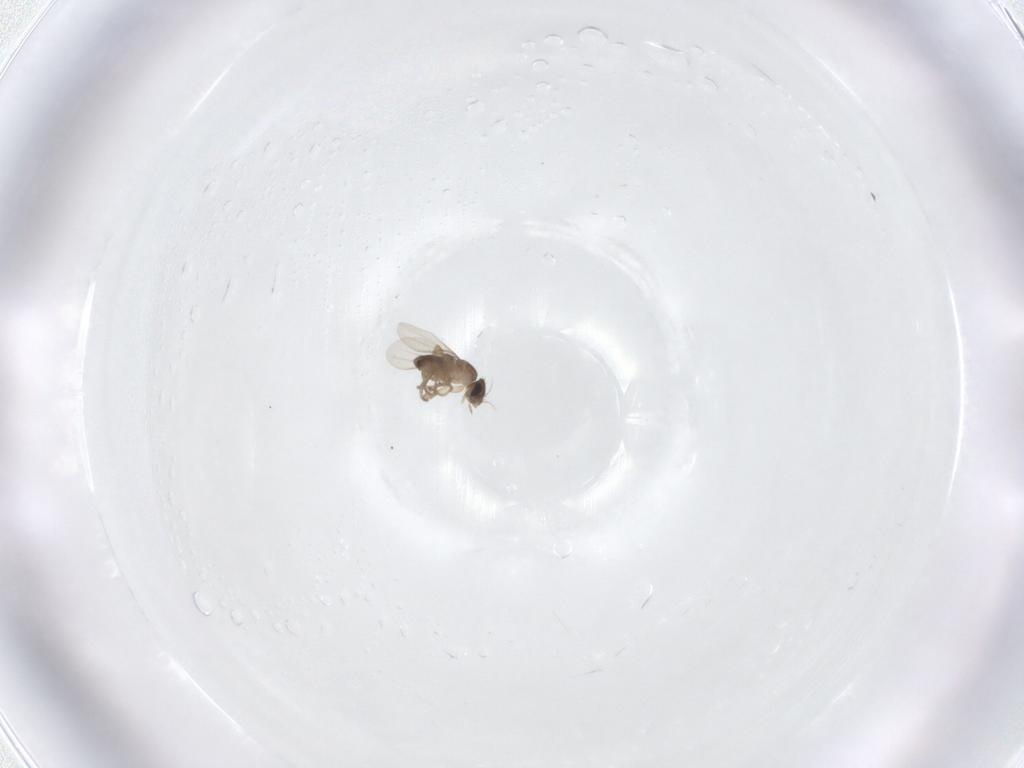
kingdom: Animalia
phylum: Arthropoda
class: Insecta
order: Diptera
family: Phoridae
